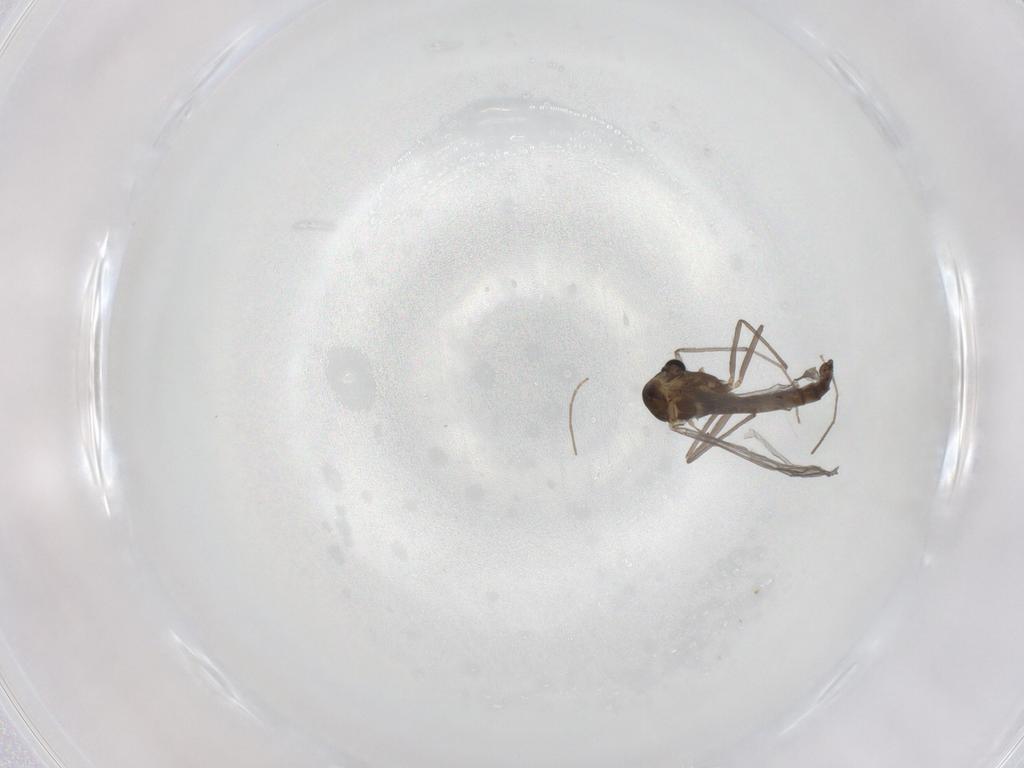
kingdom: Animalia
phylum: Arthropoda
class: Insecta
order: Diptera
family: Chironomidae
